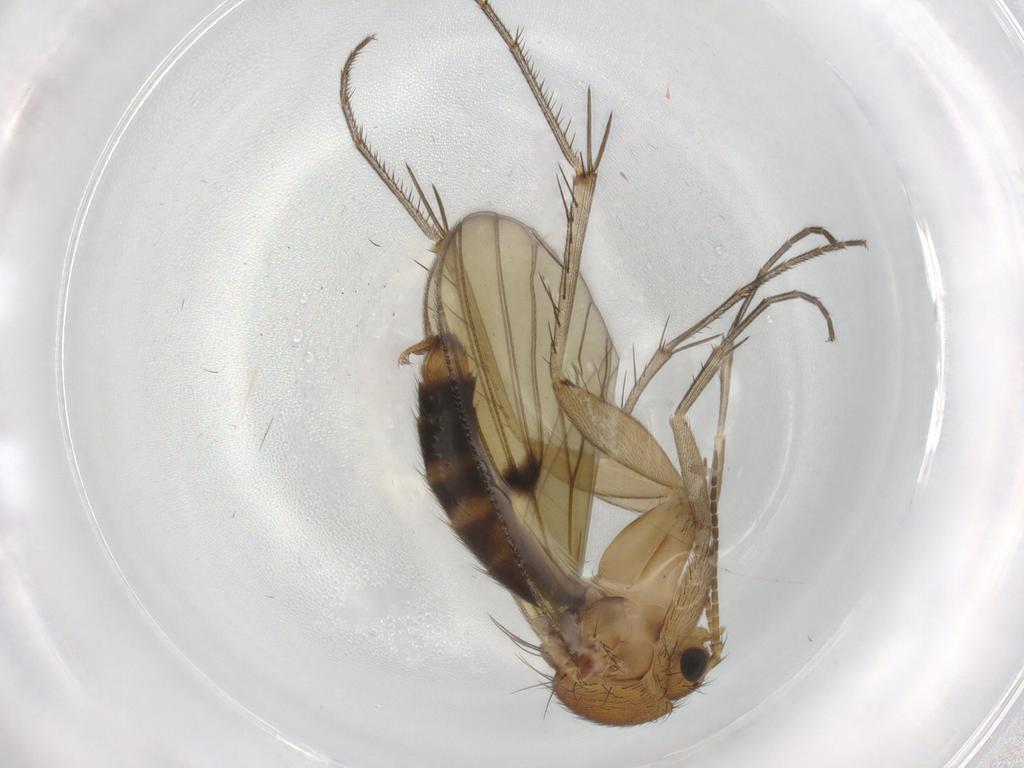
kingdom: Animalia
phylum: Arthropoda
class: Insecta
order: Diptera
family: Mycetophilidae
